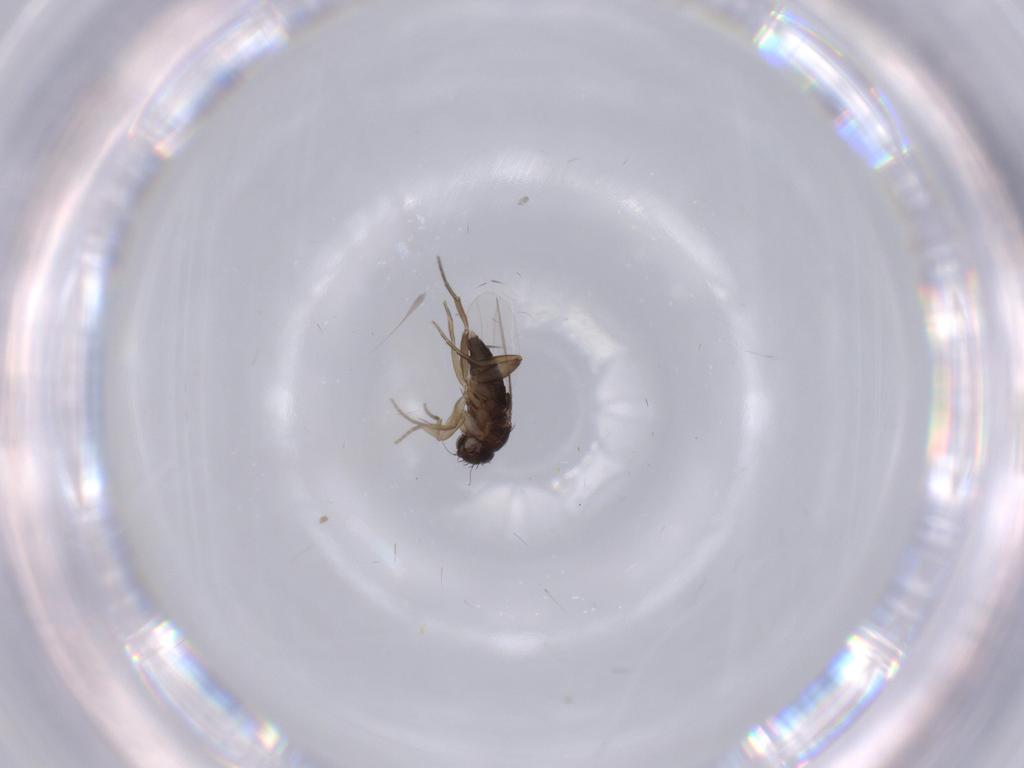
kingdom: Animalia
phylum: Arthropoda
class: Insecta
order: Diptera
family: Phoridae
